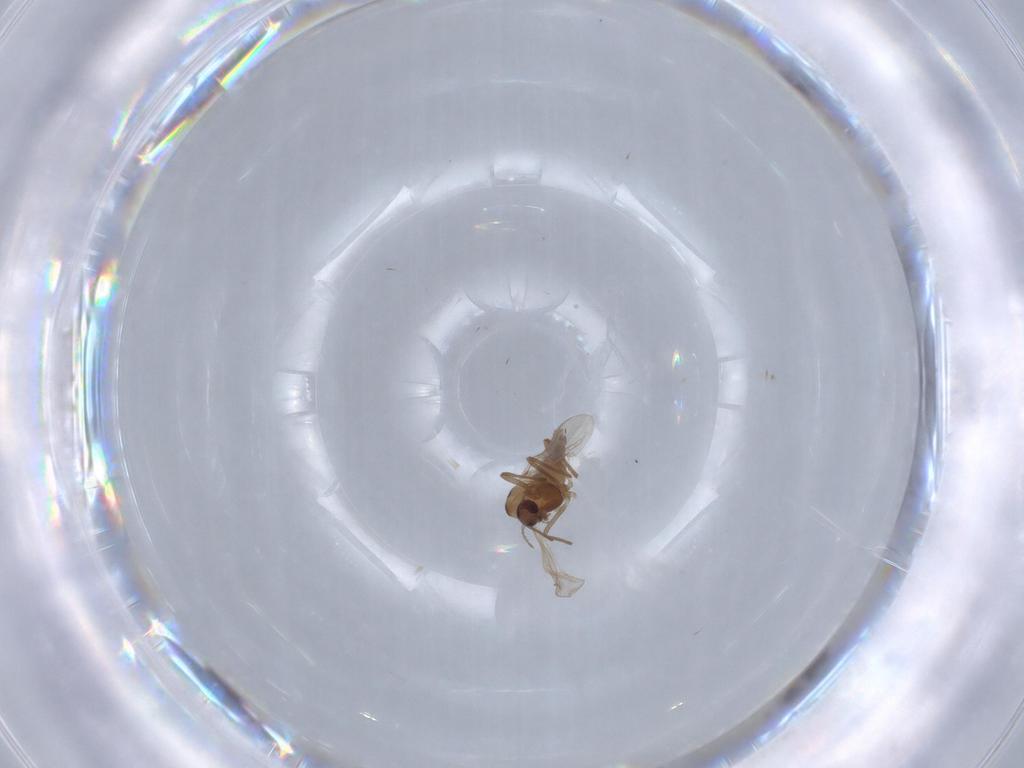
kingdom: Animalia
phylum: Arthropoda
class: Insecta
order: Diptera
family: Chironomidae
